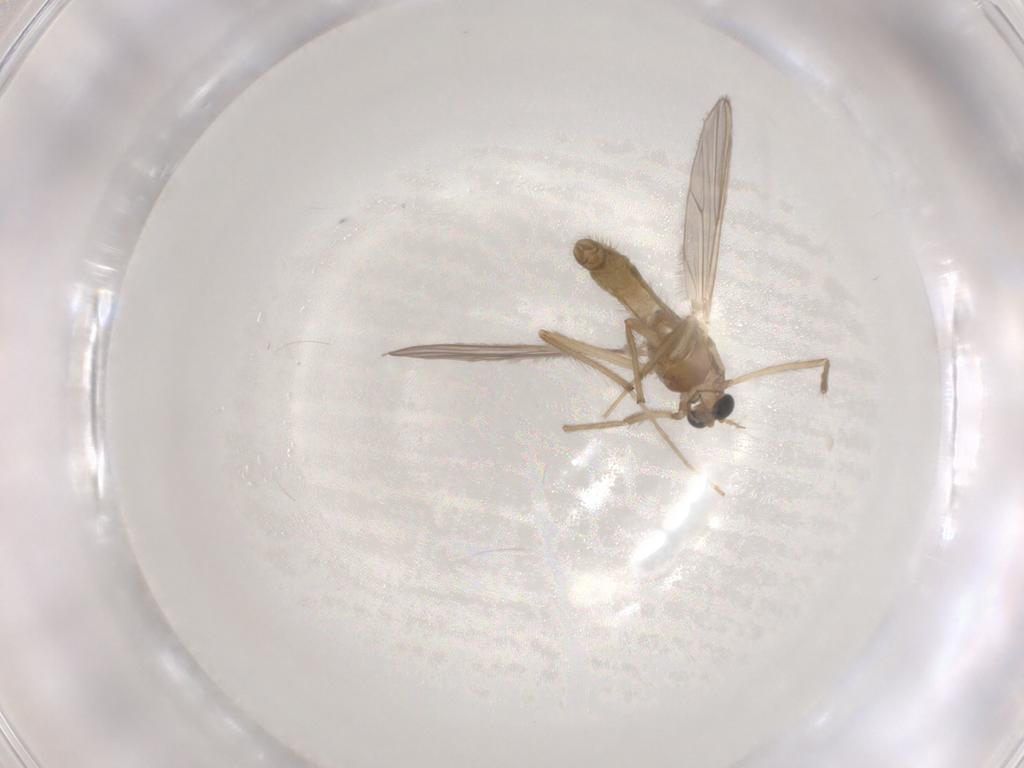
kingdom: Animalia
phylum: Arthropoda
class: Insecta
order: Diptera
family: Chironomidae
